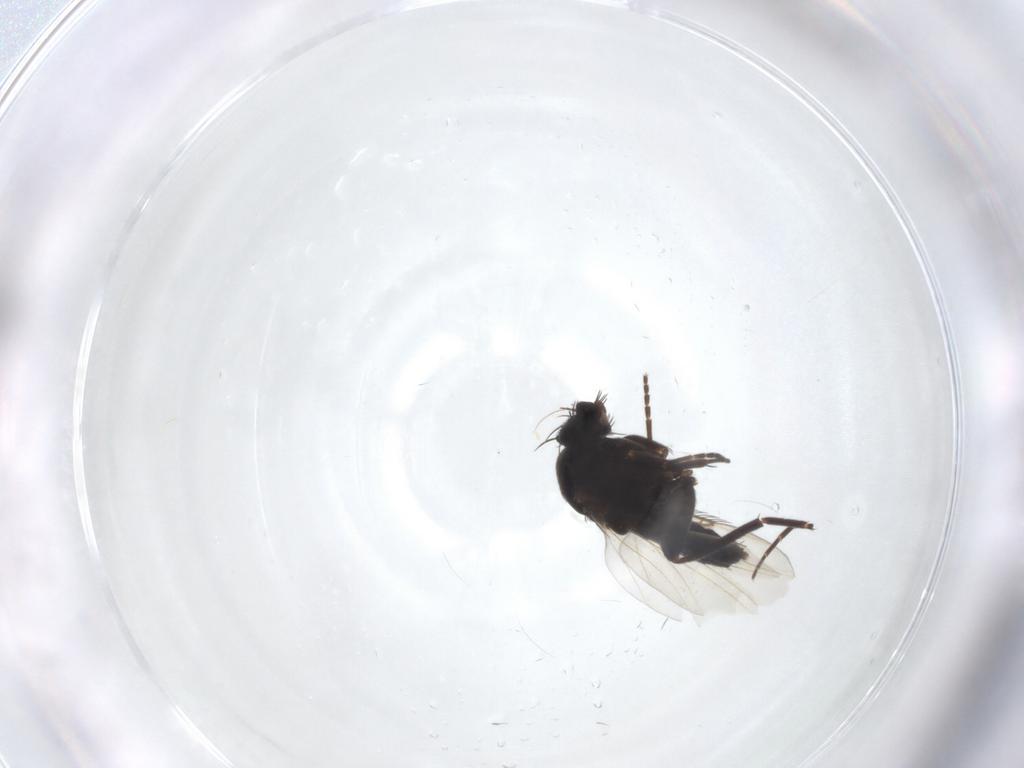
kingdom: Animalia
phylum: Arthropoda
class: Insecta
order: Diptera
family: Phoridae
